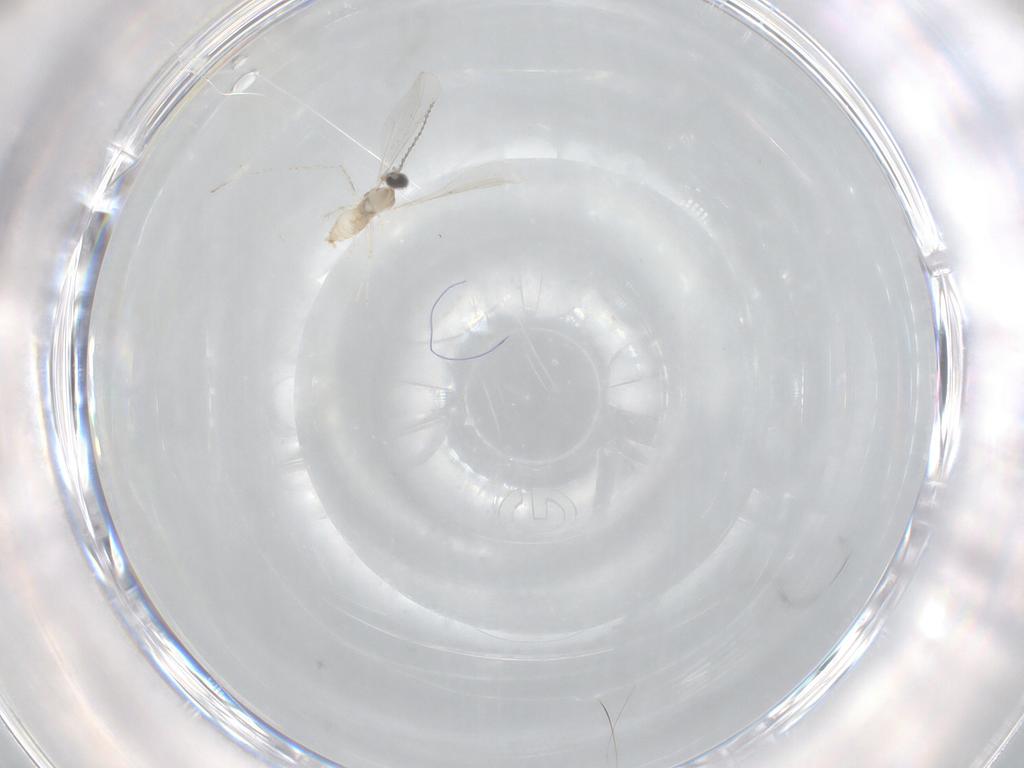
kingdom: Animalia
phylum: Arthropoda
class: Insecta
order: Diptera
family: Cecidomyiidae
